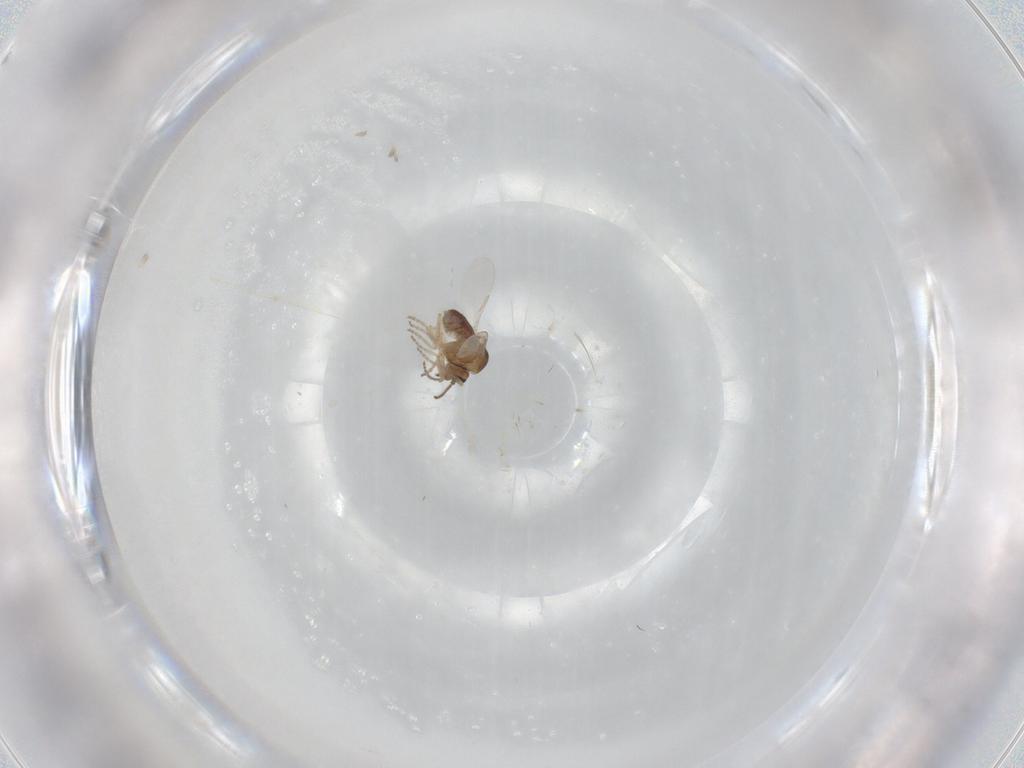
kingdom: Animalia
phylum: Arthropoda
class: Insecta
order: Diptera
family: Ceratopogonidae
